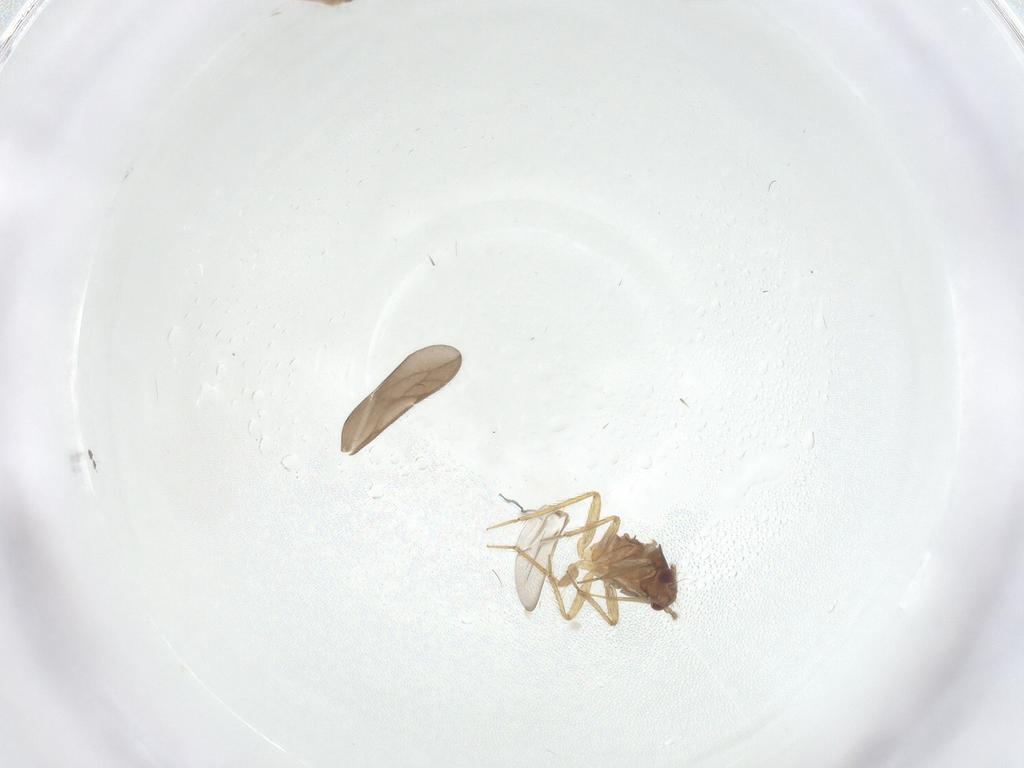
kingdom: Animalia
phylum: Arthropoda
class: Insecta
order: Hemiptera
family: Ceratocombidae
